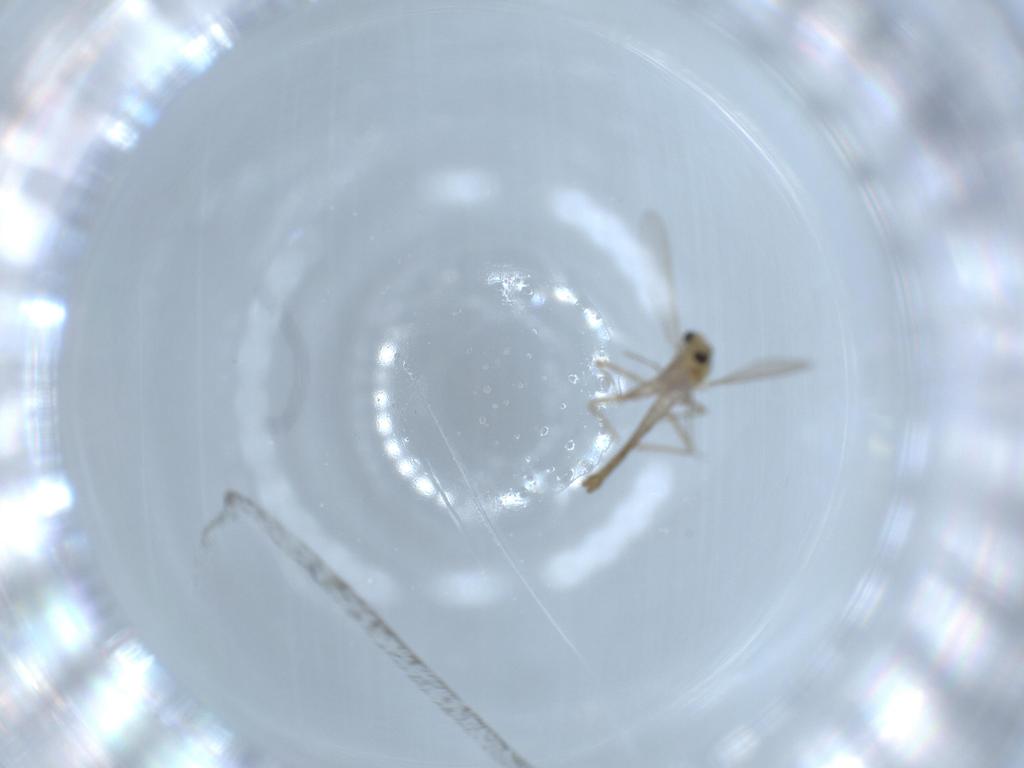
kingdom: Animalia
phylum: Arthropoda
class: Insecta
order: Diptera
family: Chironomidae
